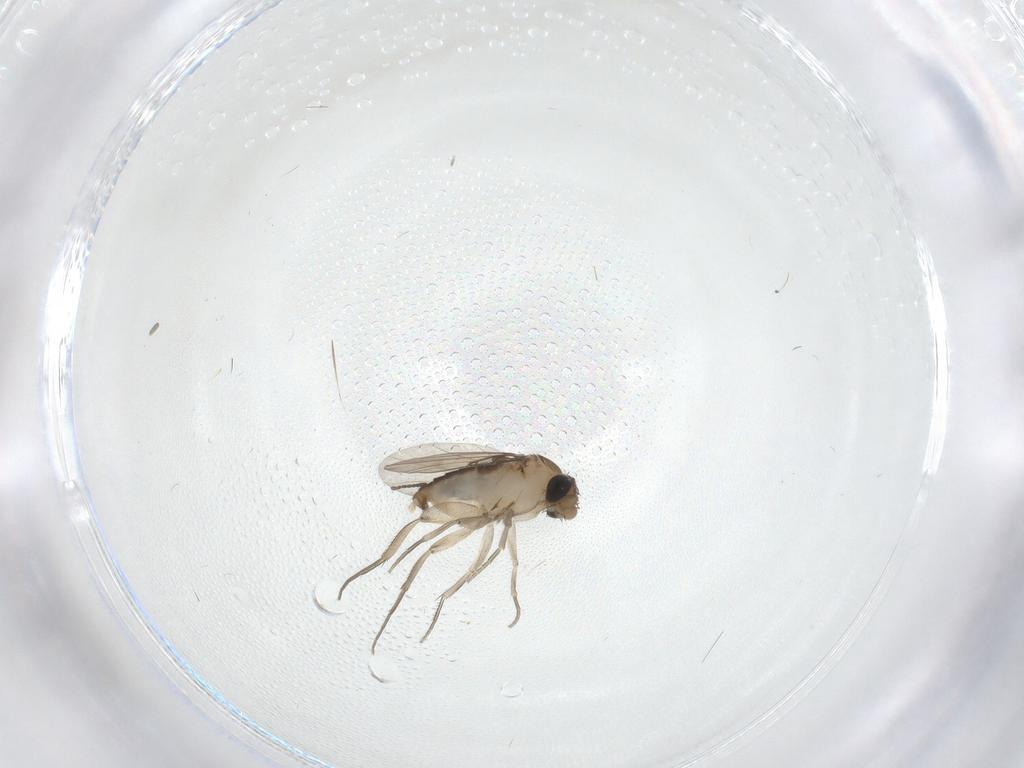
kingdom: Animalia
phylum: Arthropoda
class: Insecta
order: Diptera
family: Phoridae
